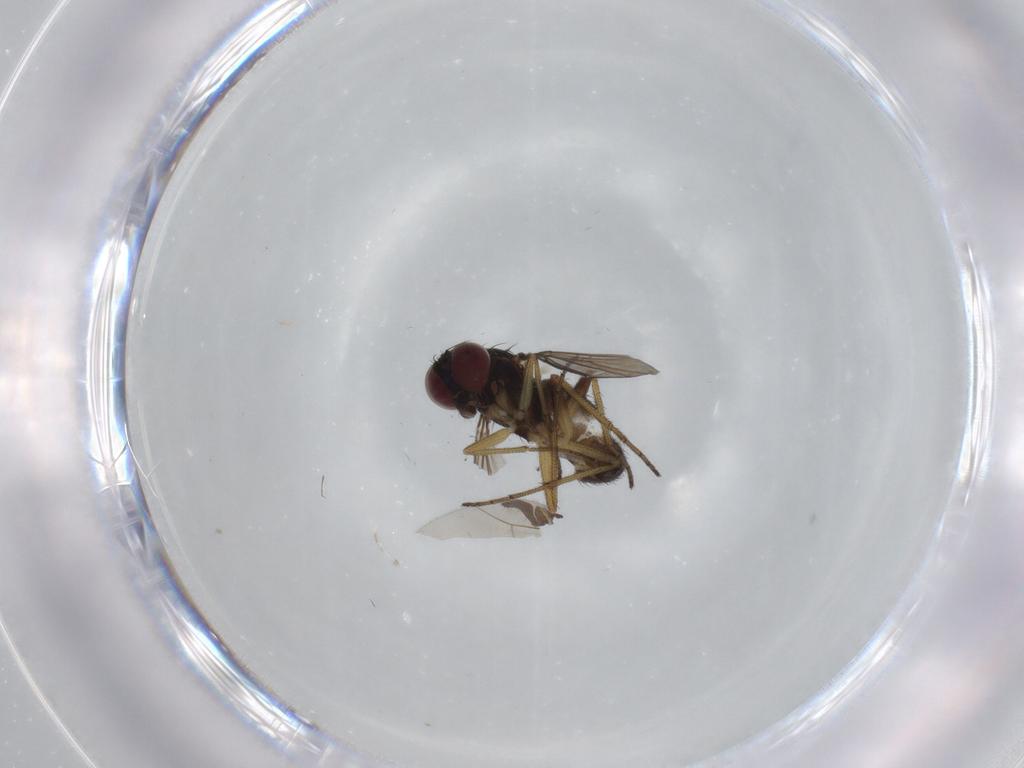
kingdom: Animalia
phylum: Arthropoda
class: Insecta
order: Diptera
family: Dolichopodidae
